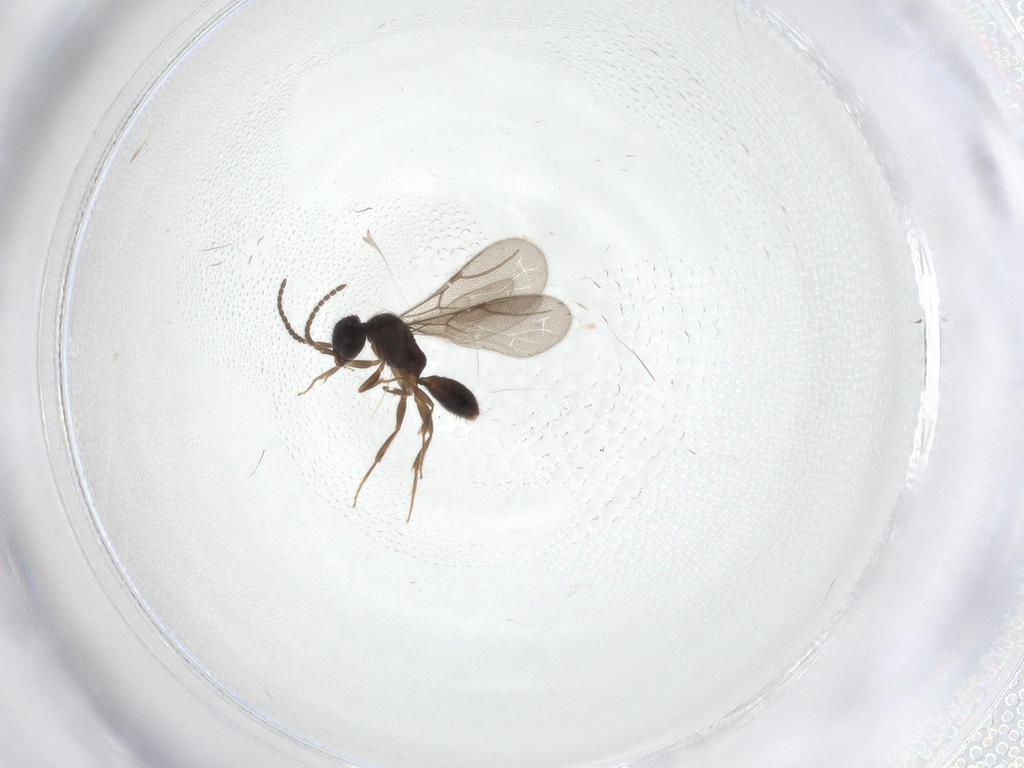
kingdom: Animalia
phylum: Arthropoda
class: Insecta
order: Hymenoptera
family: Bethylidae
